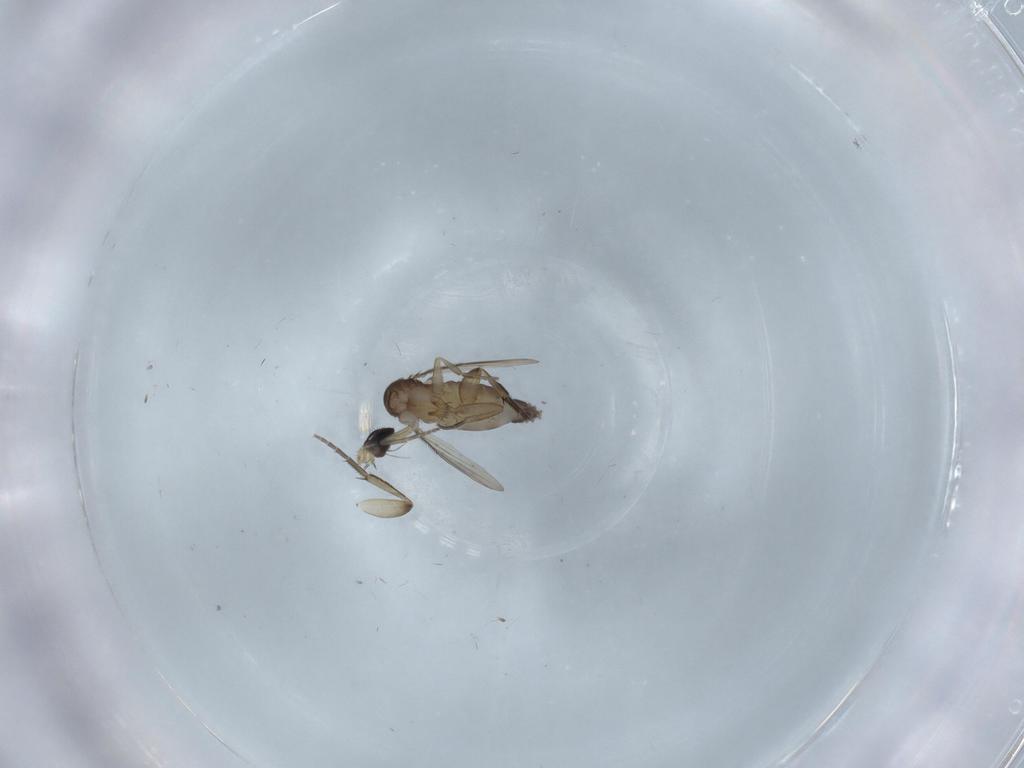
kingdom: Animalia
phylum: Arthropoda
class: Insecta
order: Diptera
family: Phoridae
